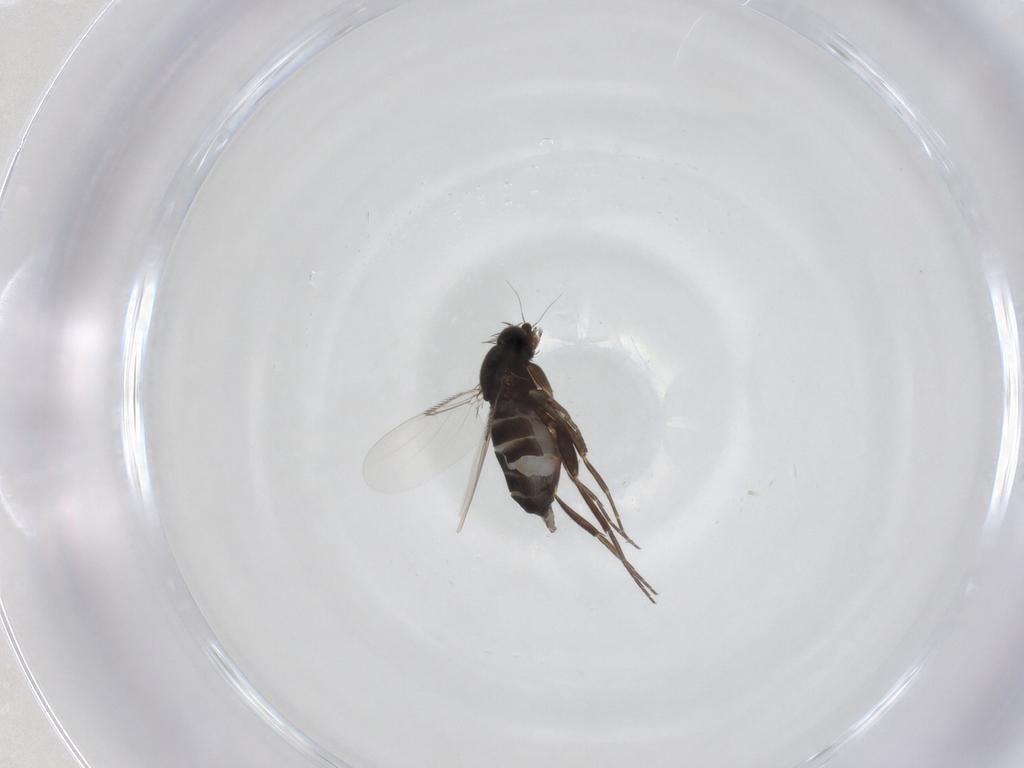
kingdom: Animalia
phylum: Arthropoda
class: Insecta
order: Diptera
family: Phoridae
